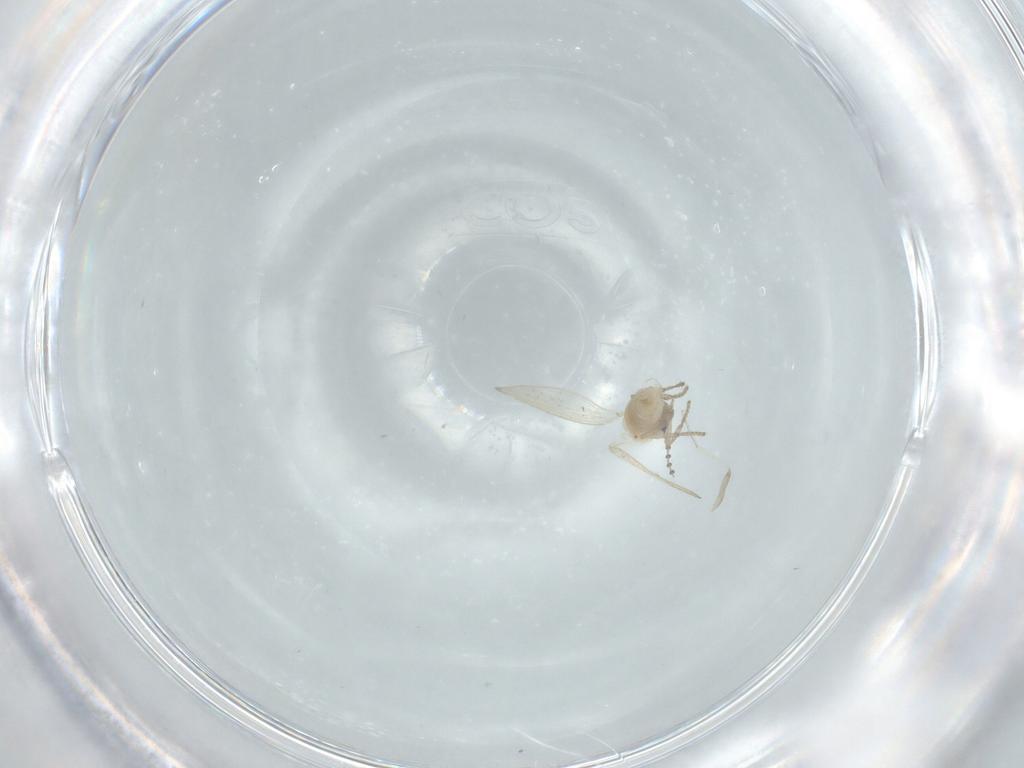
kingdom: Animalia
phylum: Arthropoda
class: Insecta
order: Diptera
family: Psychodidae
